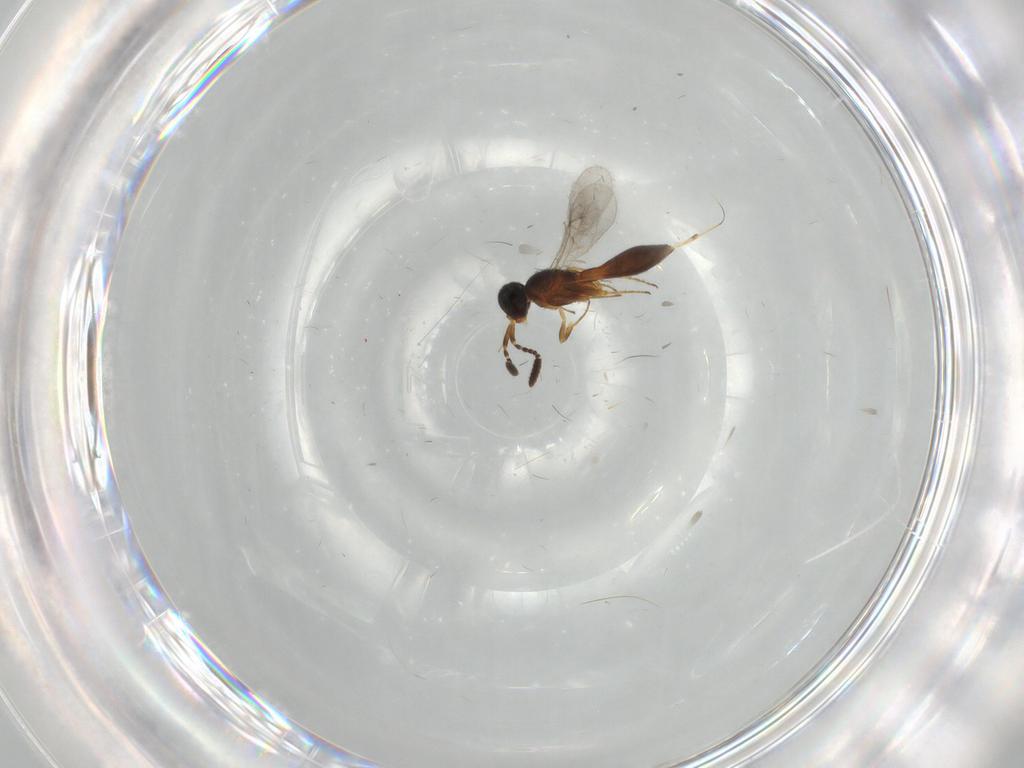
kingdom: Animalia
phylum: Arthropoda
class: Insecta
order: Hymenoptera
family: Scelionidae
